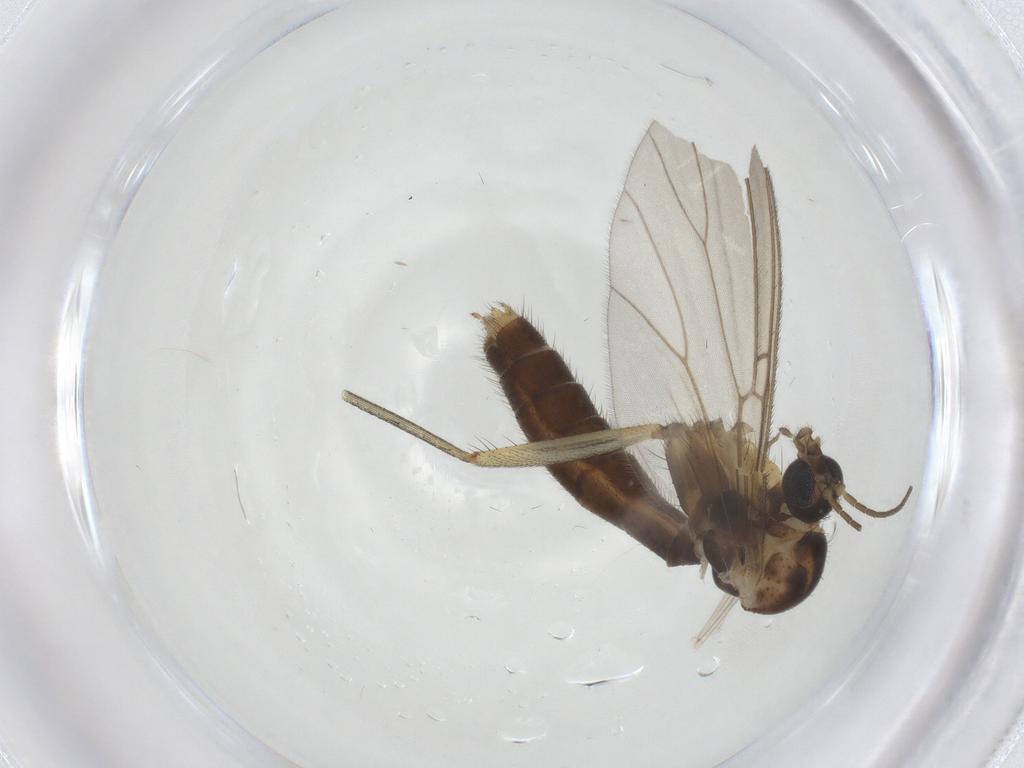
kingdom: Animalia
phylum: Arthropoda
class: Insecta
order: Diptera
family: Mycetophilidae
